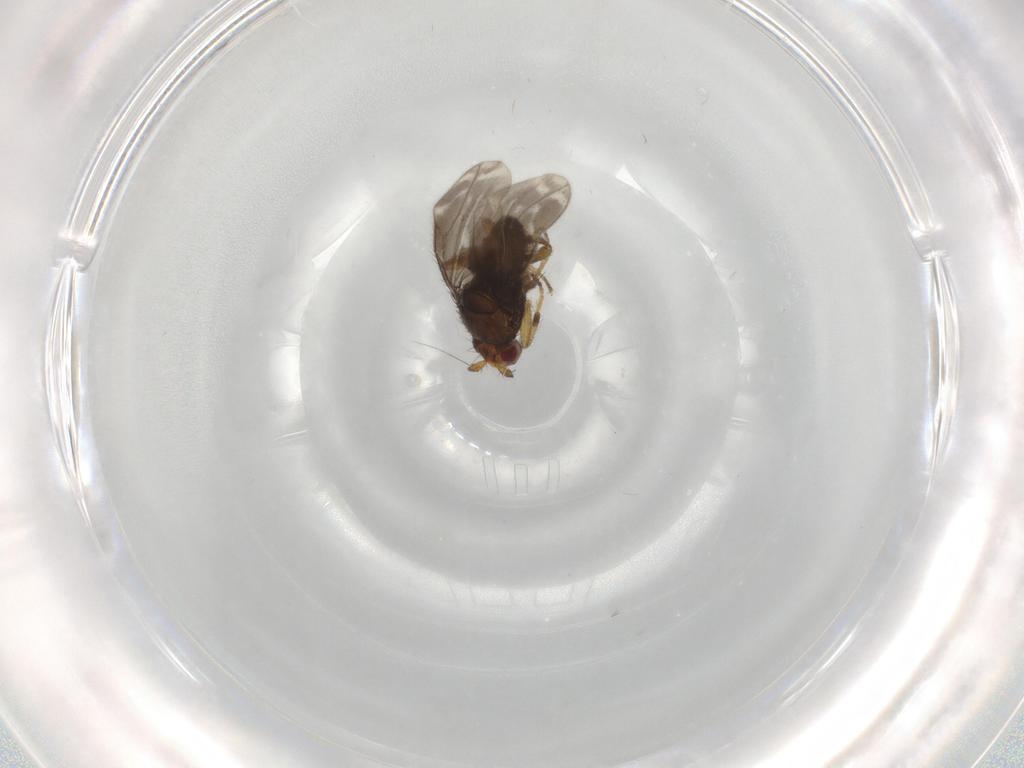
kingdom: Animalia
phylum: Arthropoda
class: Insecta
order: Diptera
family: Sphaeroceridae
